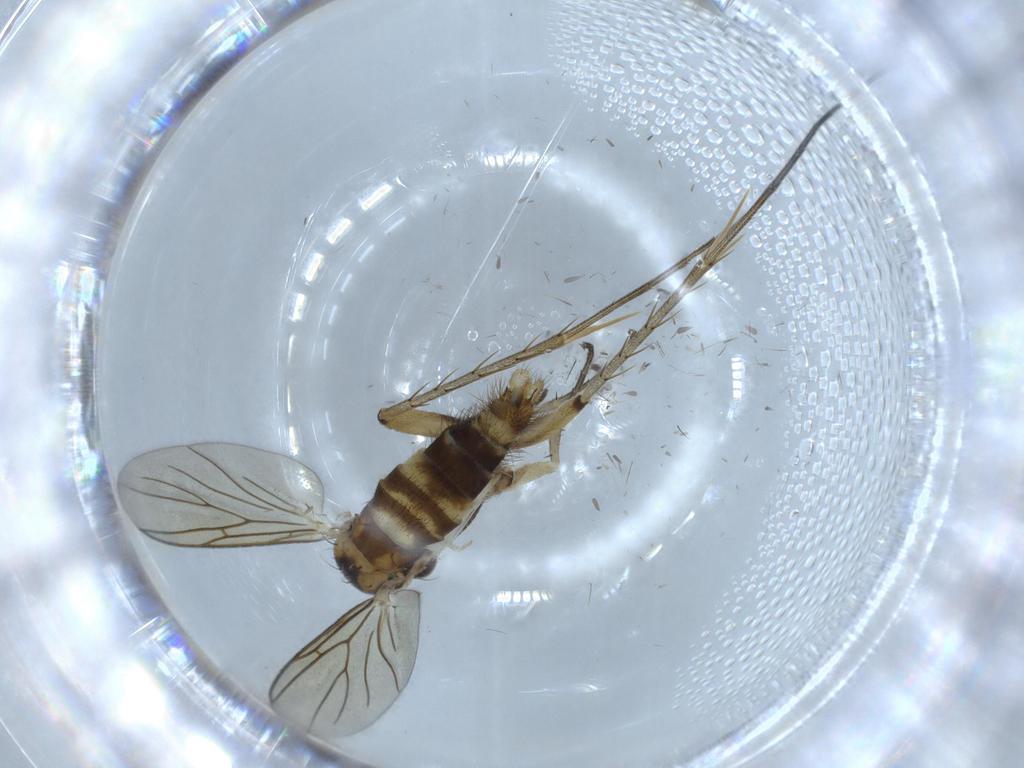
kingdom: Animalia
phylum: Arthropoda
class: Insecta
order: Diptera
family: Mycetophilidae
